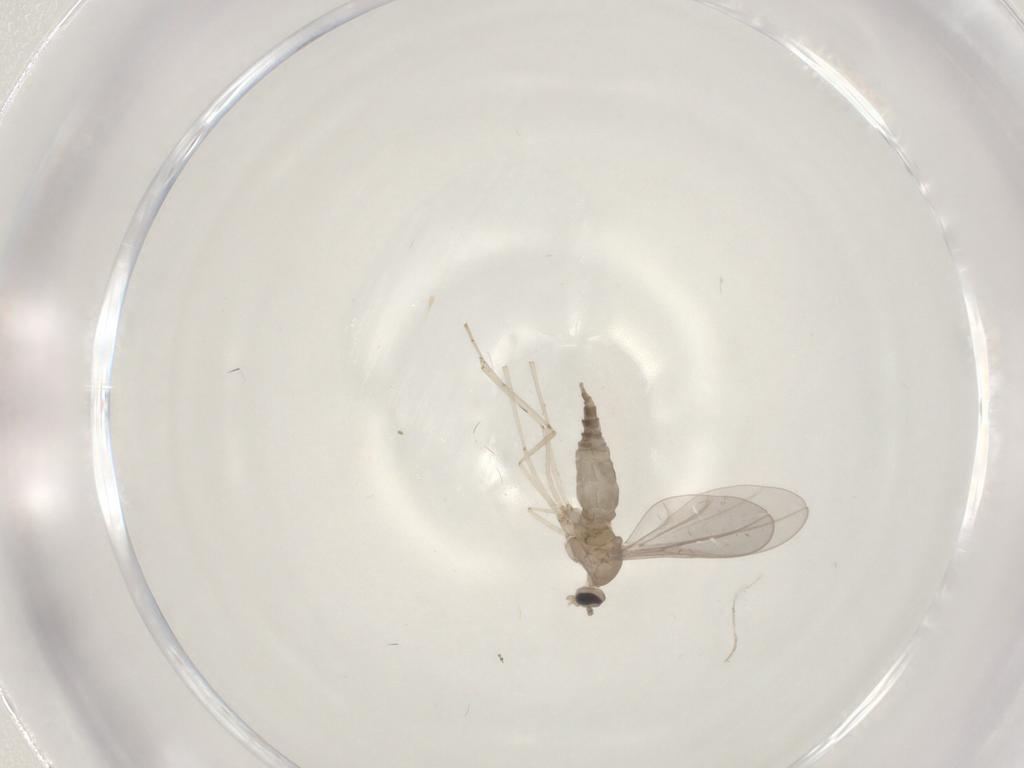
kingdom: Animalia
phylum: Arthropoda
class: Insecta
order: Diptera
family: Cecidomyiidae
